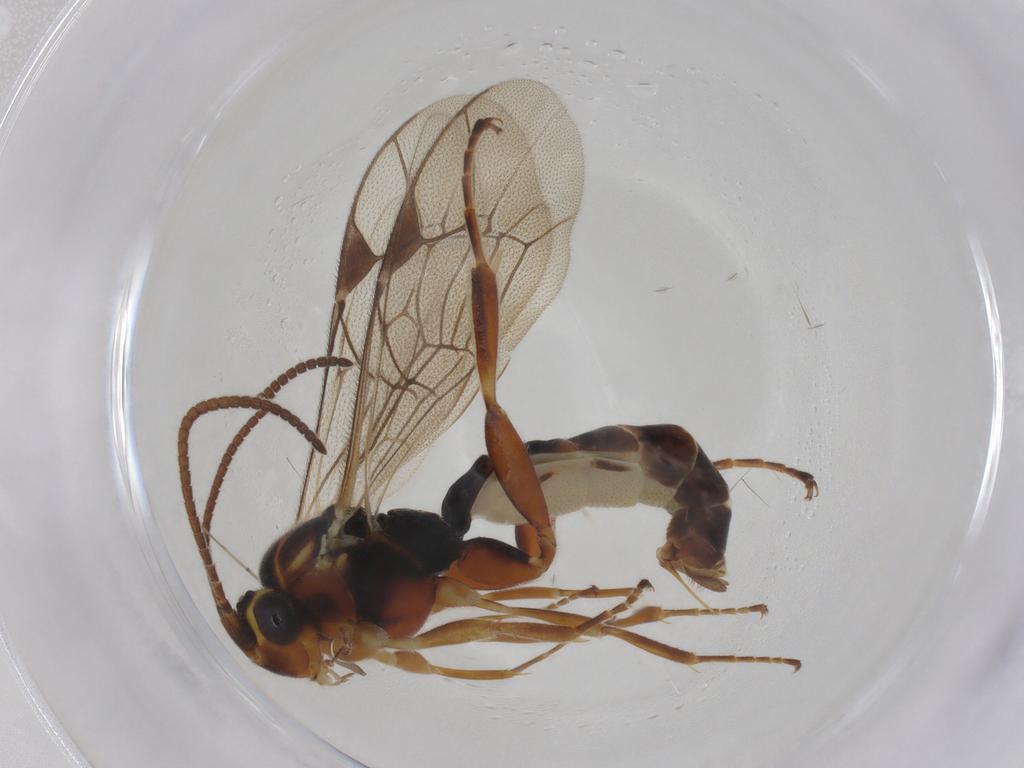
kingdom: Animalia
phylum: Arthropoda
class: Insecta
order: Hymenoptera
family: Ichneumonidae
